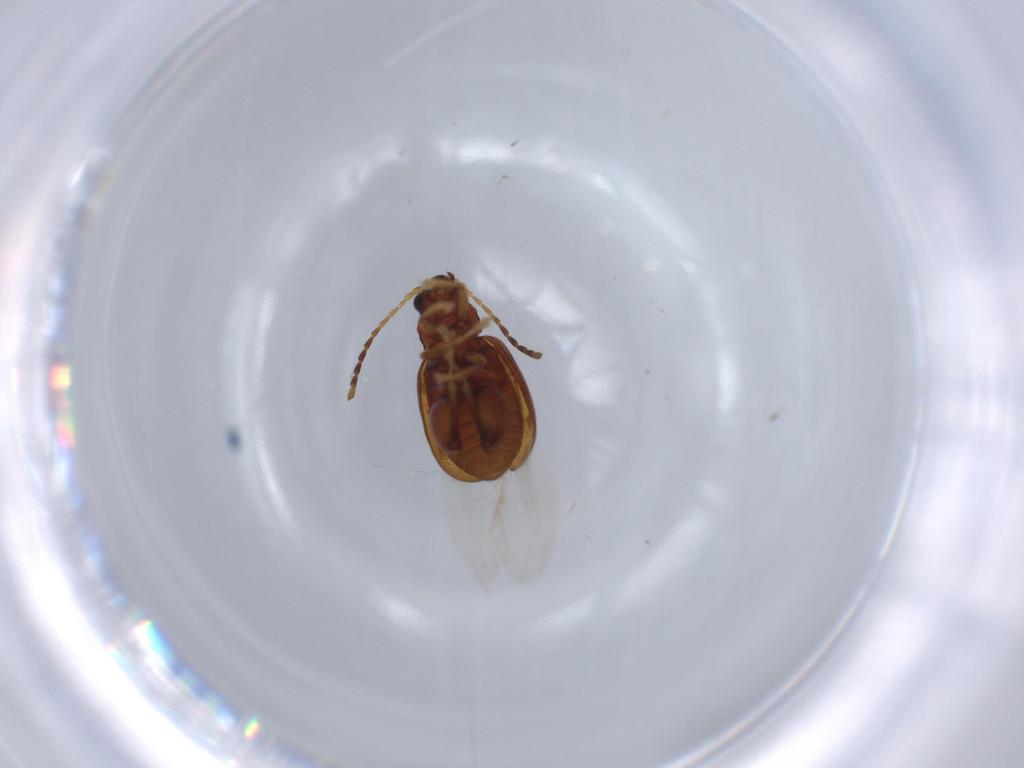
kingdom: Animalia
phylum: Arthropoda
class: Insecta
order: Coleoptera
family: Chrysomelidae
